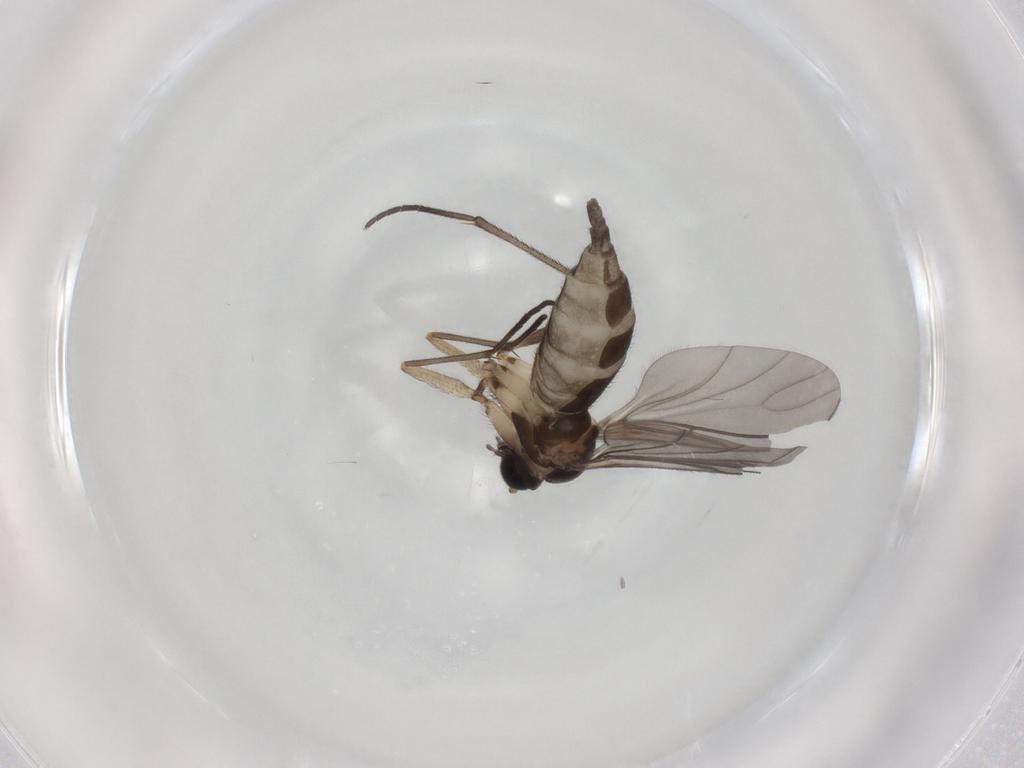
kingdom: Animalia
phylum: Arthropoda
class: Insecta
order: Diptera
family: Sciaridae
